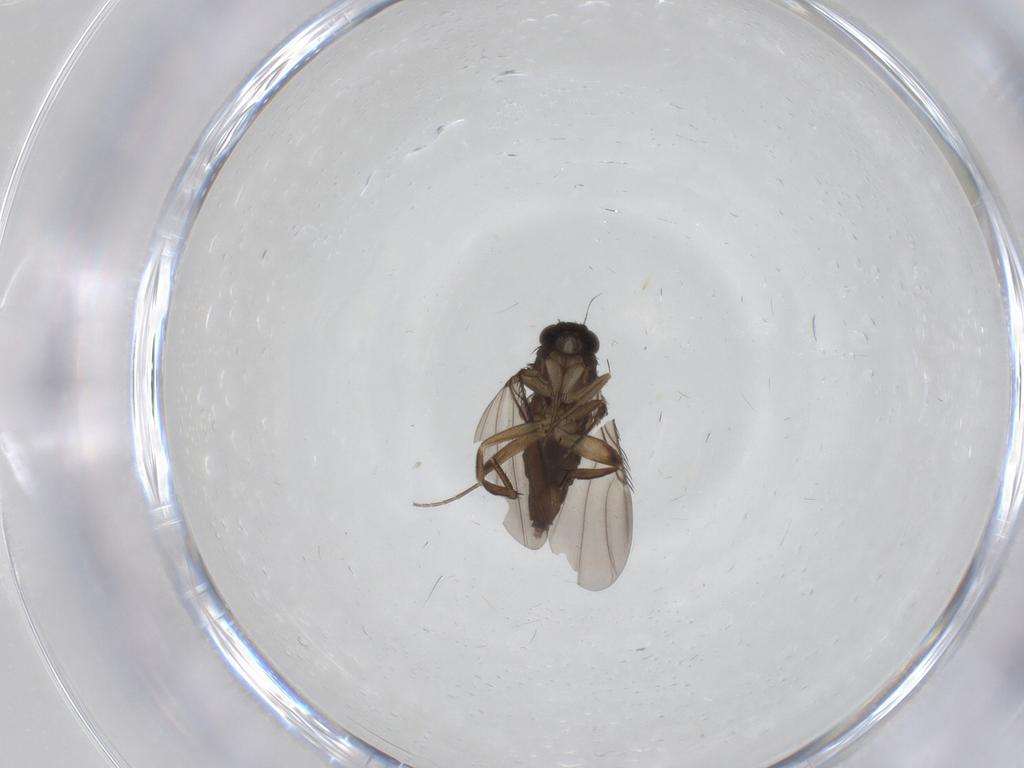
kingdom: Animalia
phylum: Arthropoda
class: Insecta
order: Diptera
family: Phoridae
